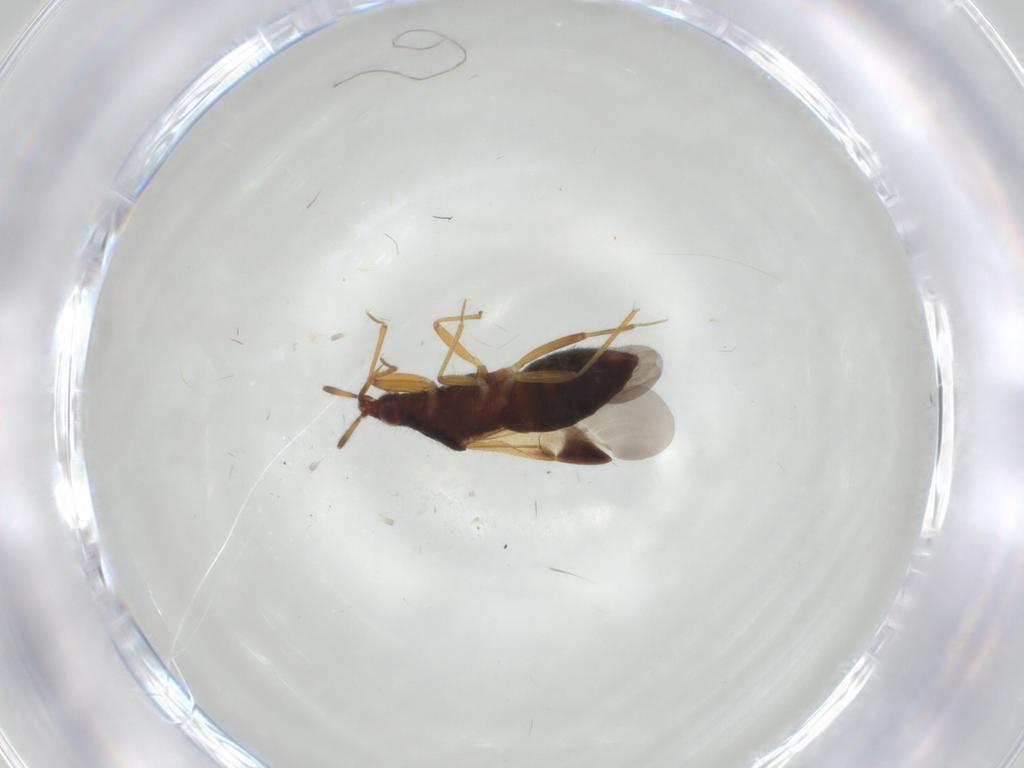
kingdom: Animalia
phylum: Arthropoda
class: Insecta
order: Hemiptera
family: Anthocoridae
